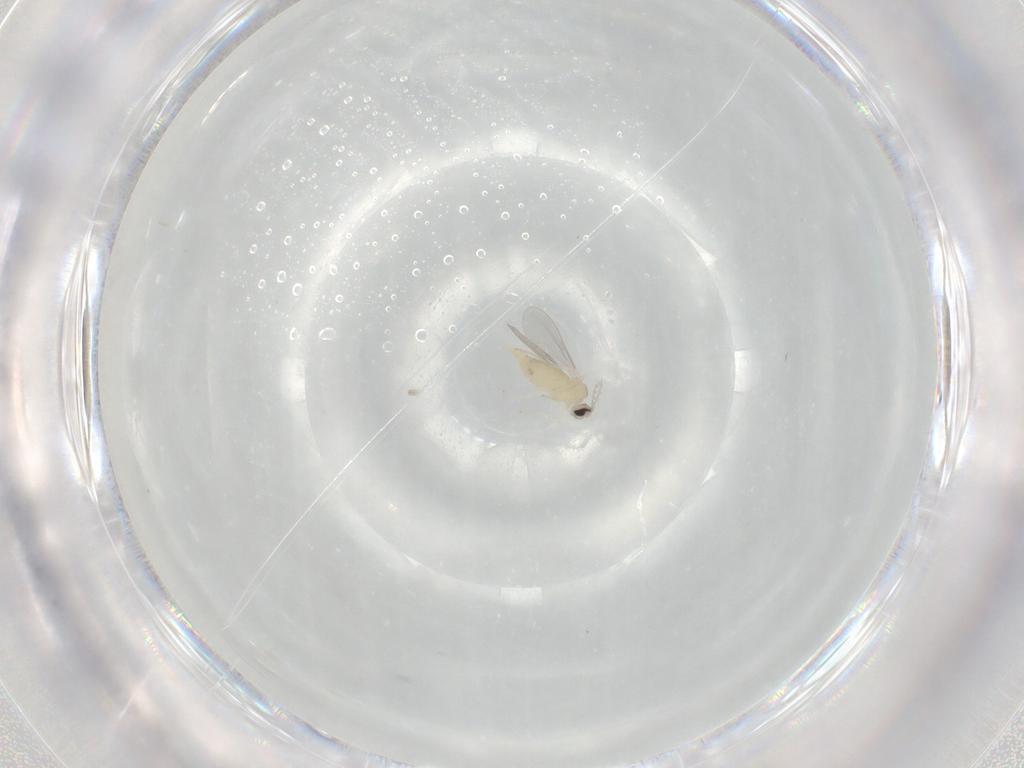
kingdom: Animalia
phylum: Arthropoda
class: Insecta
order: Diptera
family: Cecidomyiidae
